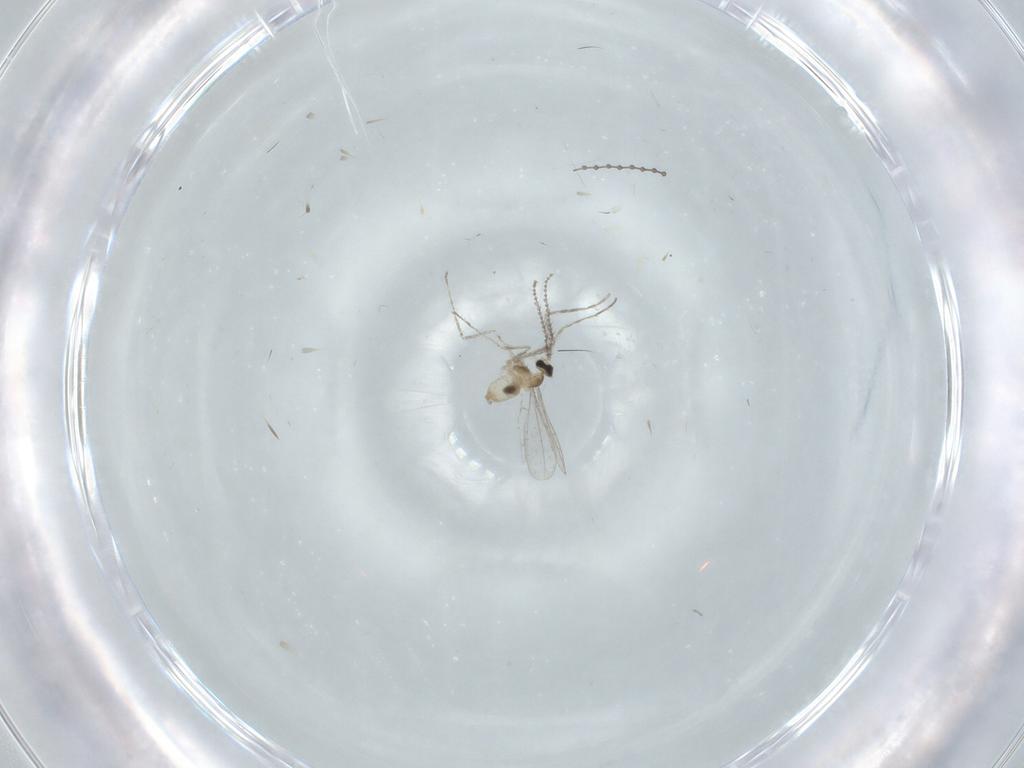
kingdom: Animalia
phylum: Arthropoda
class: Insecta
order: Diptera
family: Cecidomyiidae
